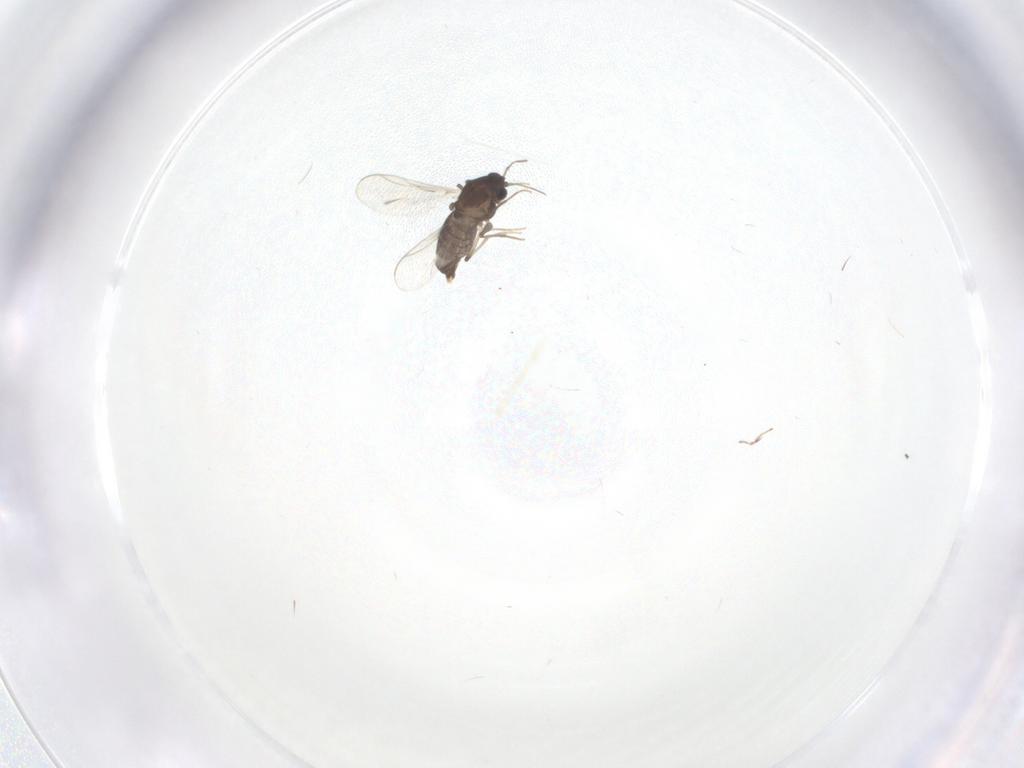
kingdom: Animalia
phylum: Arthropoda
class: Insecta
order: Diptera
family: Chironomidae
